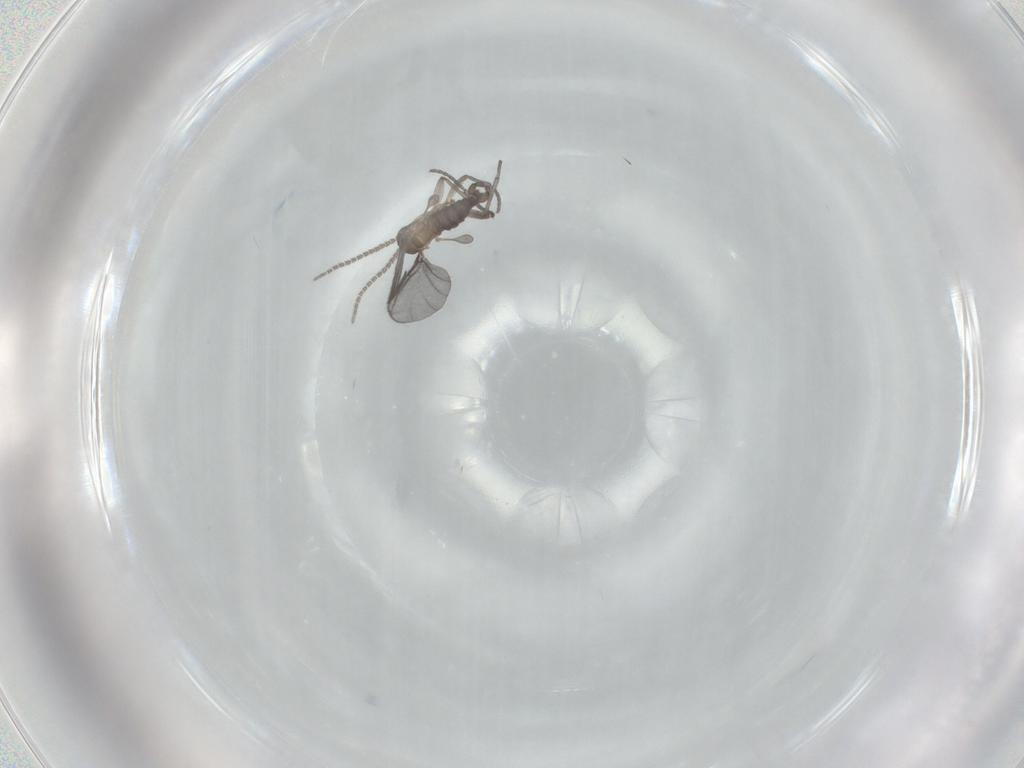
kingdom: Animalia
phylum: Arthropoda
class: Insecta
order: Diptera
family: Sciaridae
